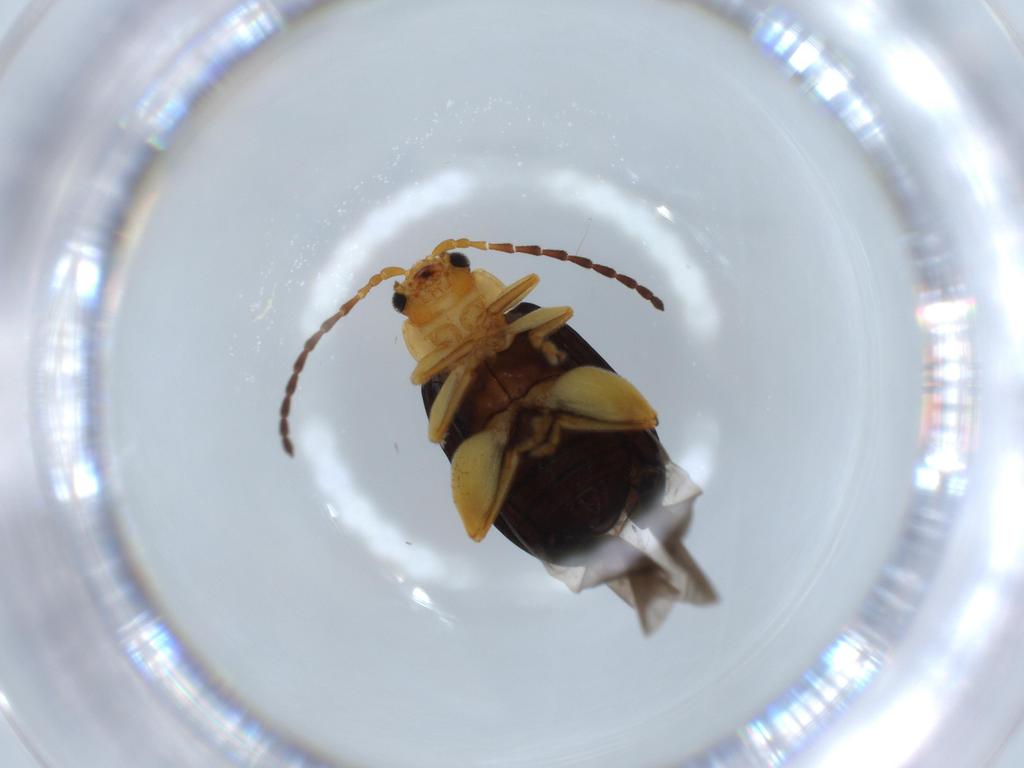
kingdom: Animalia
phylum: Arthropoda
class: Insecta
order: Coleoptera
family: Chrysomelidae
